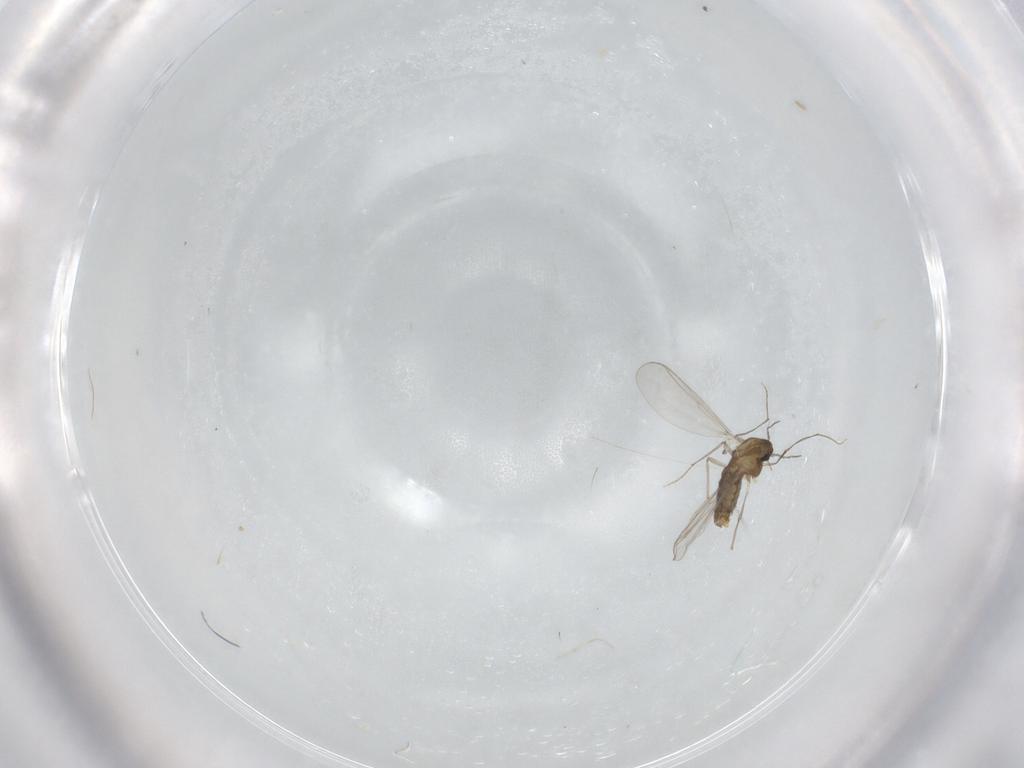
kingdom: Animalia
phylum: Arthropoda
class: Insecta
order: Diptera
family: Chironomidae
